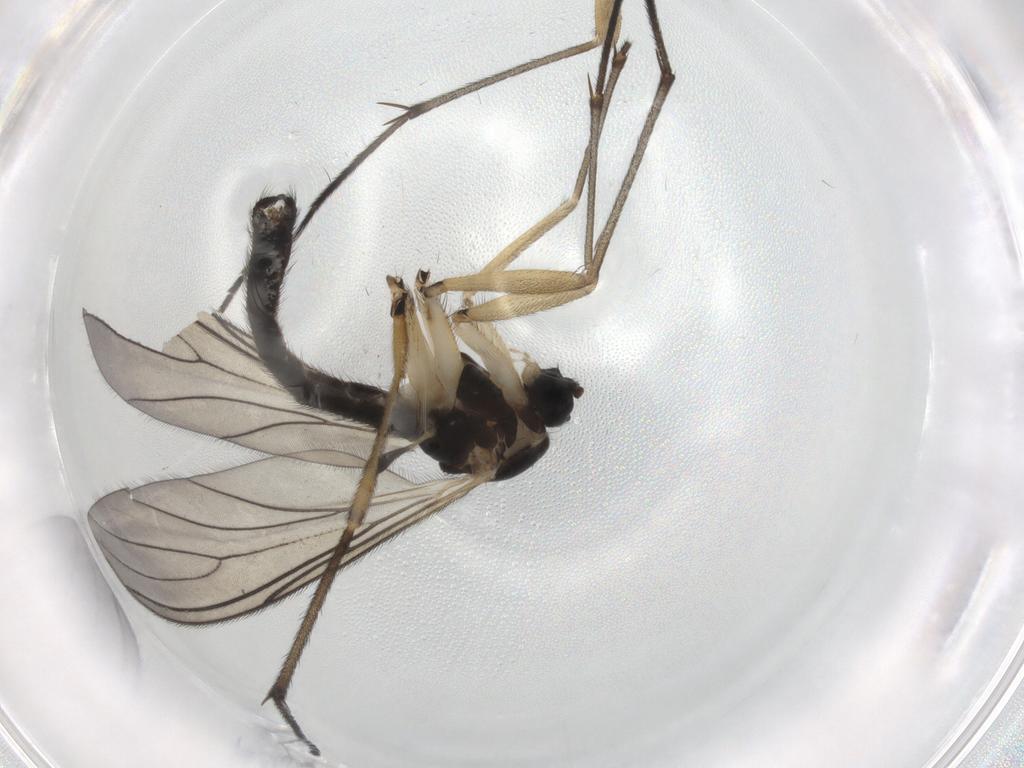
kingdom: Animalia
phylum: Arthropoda
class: Insecta
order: Diptera
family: Sciaridae
